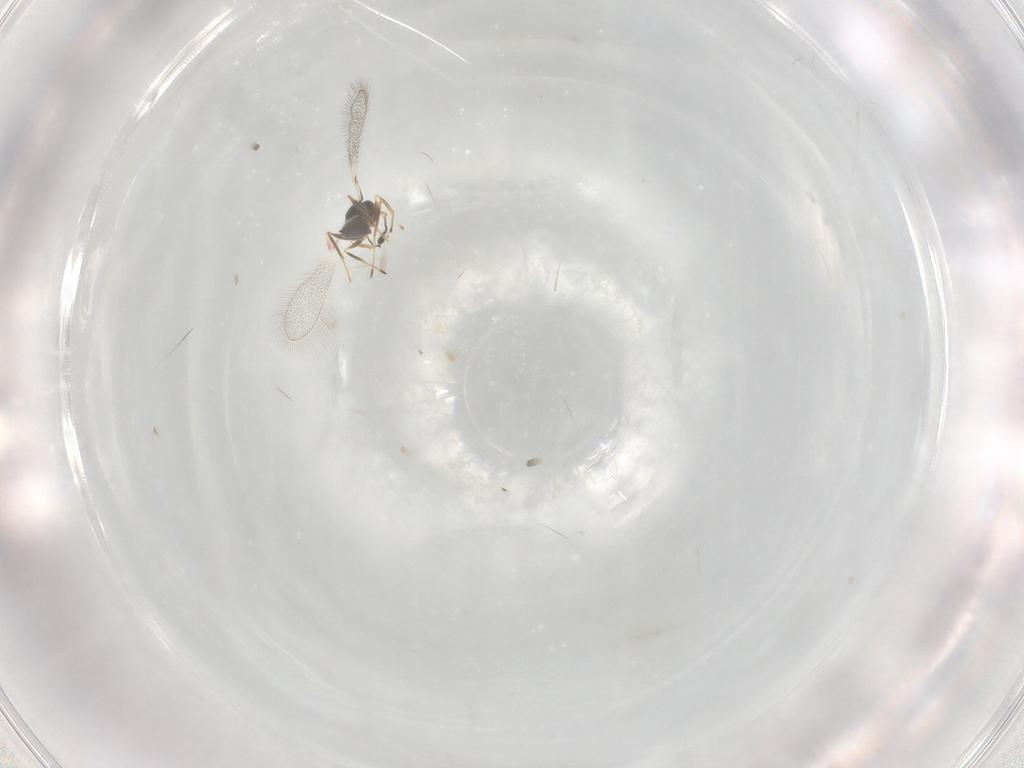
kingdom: Animalia
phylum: Arthropoda
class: Insecta
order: Hymenoptera
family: Mymaridae
